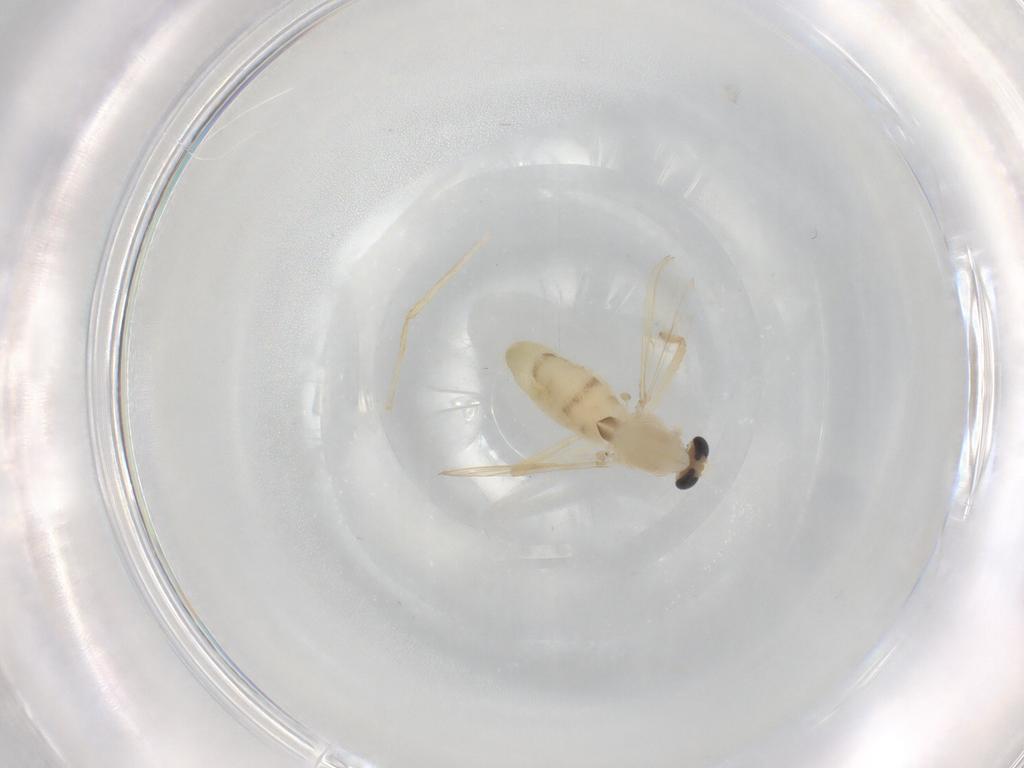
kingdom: Animalia
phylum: Arthropoda
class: Insecta
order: Diptera
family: Chironomidae
